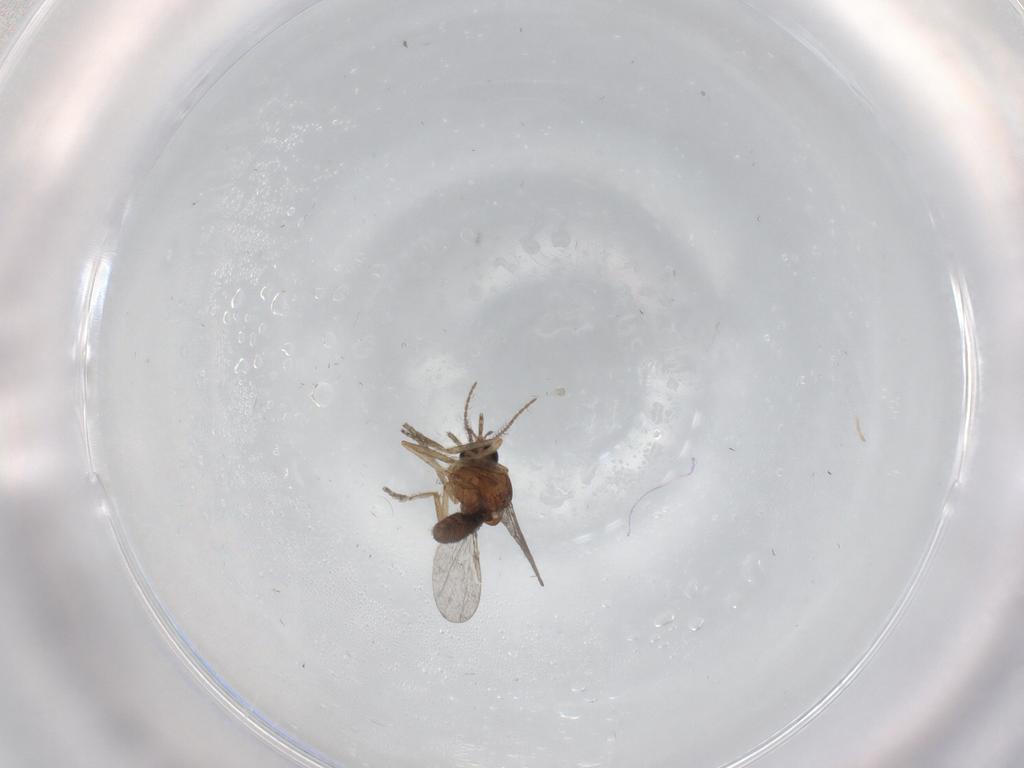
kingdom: Animalia
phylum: Arthropoda
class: Insecta
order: Diptera
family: Ceratopogonidae
